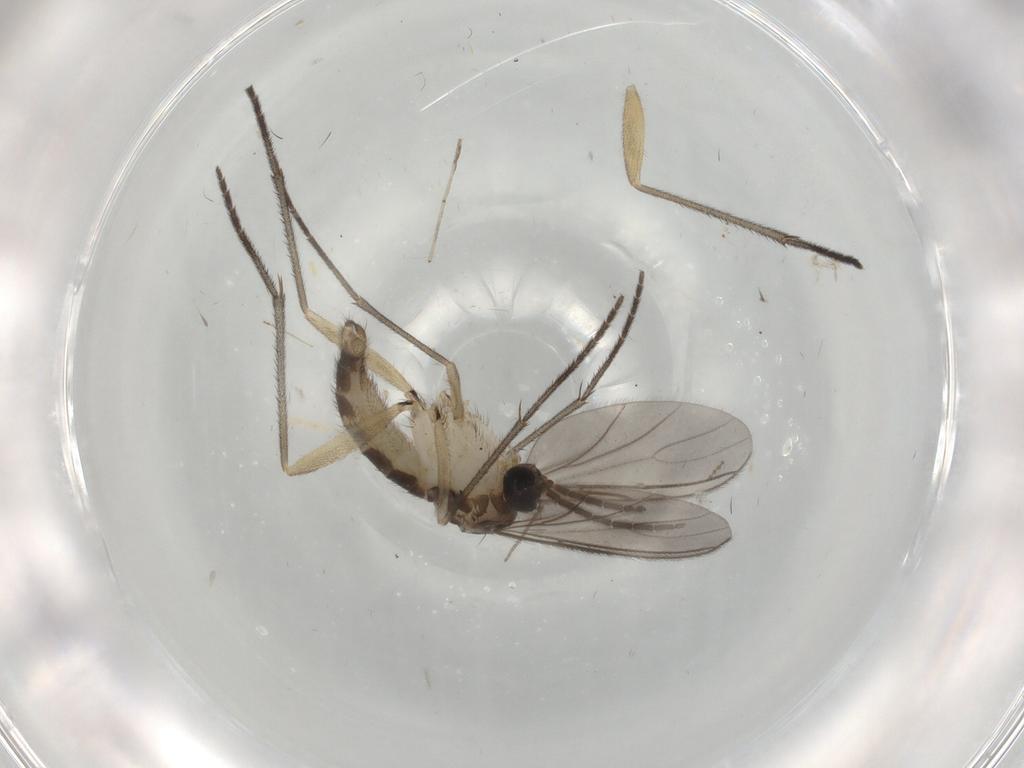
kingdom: Animalia
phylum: Arthropoda
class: Insecta
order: Diptera
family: Sciaridae
